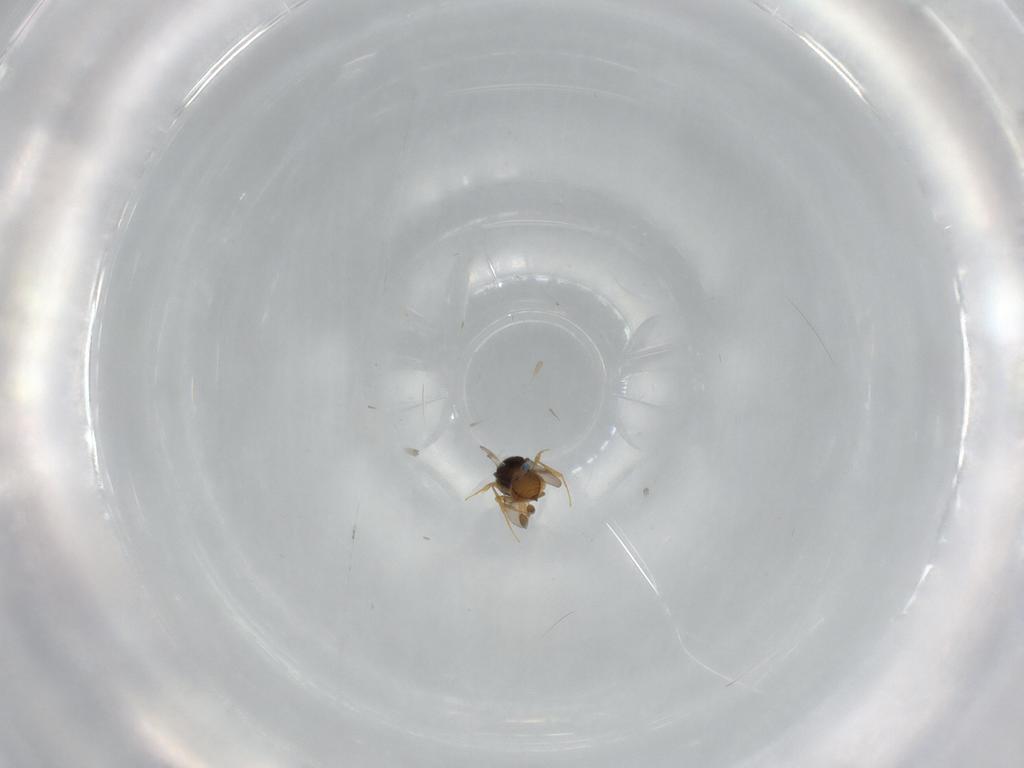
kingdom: Animalia
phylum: Arthropoda
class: Insecta
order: Hymenoptera
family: Scelionidae
